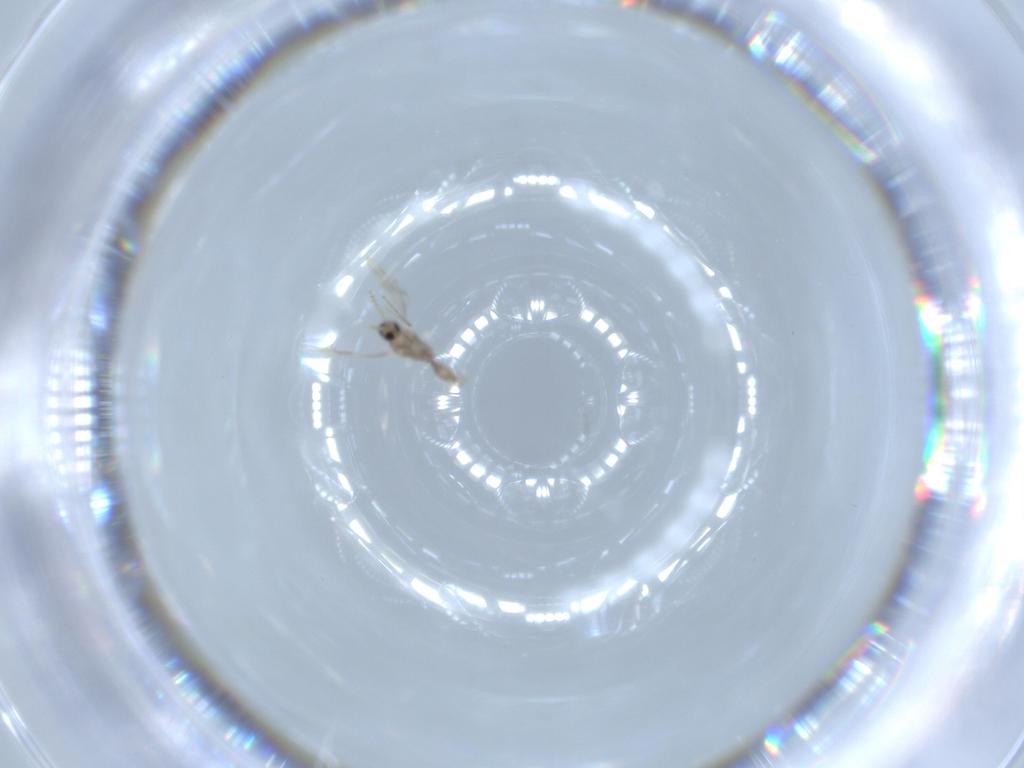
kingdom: Animalia
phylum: Arthropoda
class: Insecta
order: Diptera
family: Cecidomyiidae
